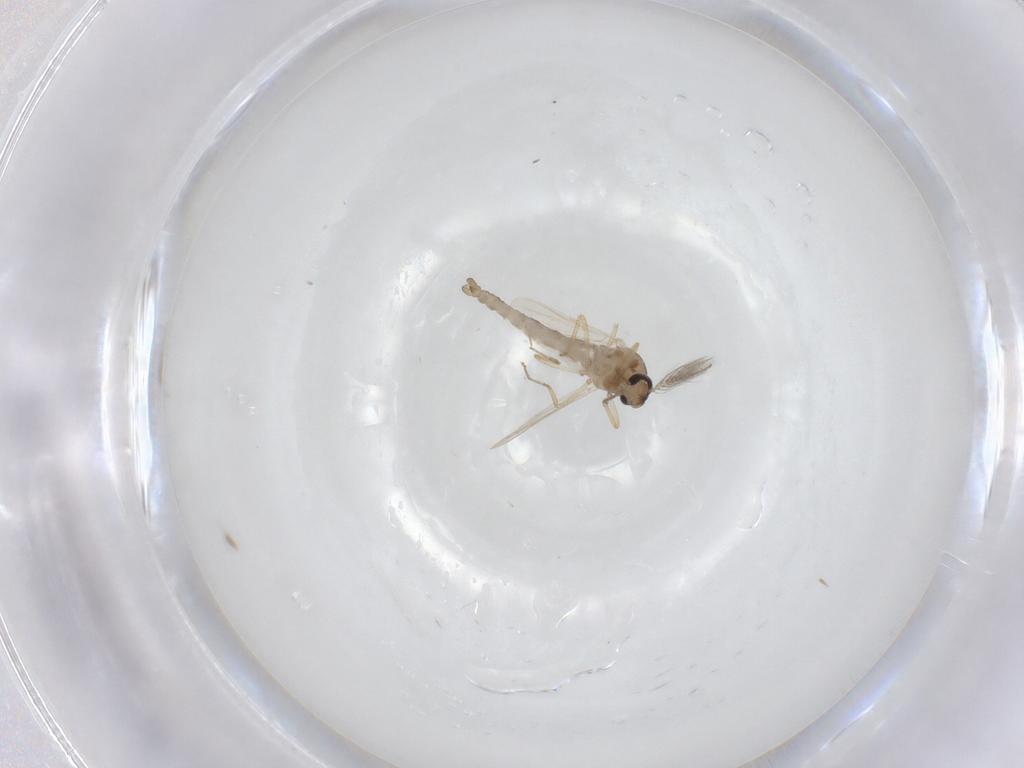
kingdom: Animalia
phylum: Arthropoda
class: Insecta
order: Diptera
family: Ceratopogonidae
